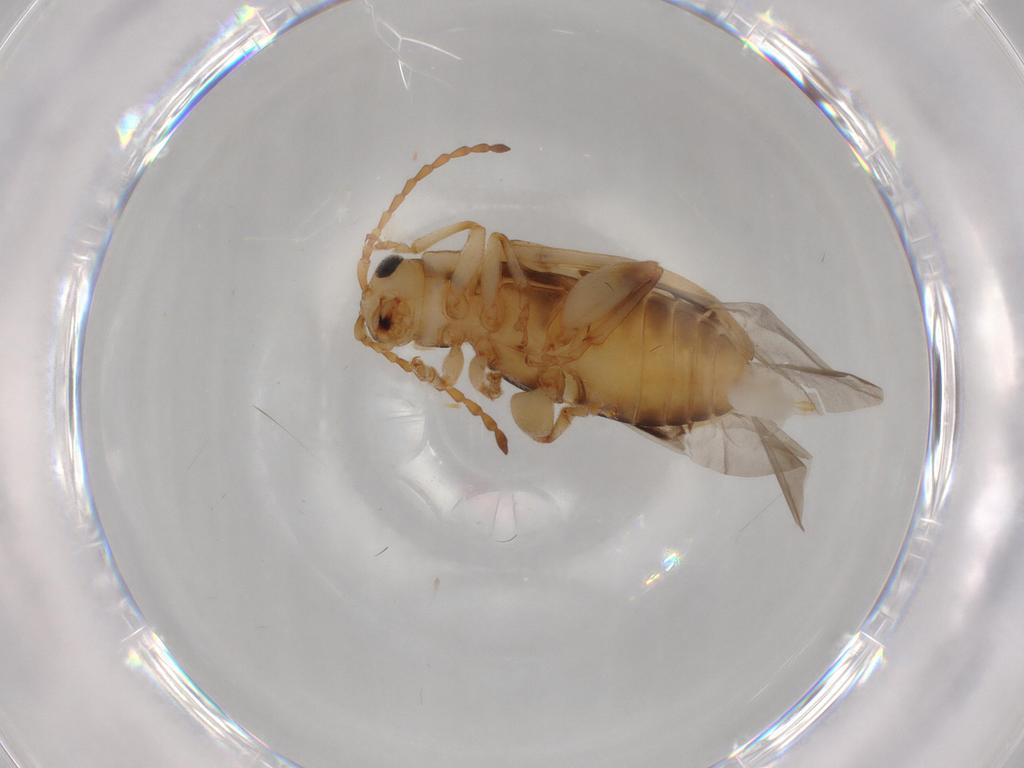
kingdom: Animalia
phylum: Arthropoda
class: Insecta
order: Coleoptera
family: Chrysomelidae
